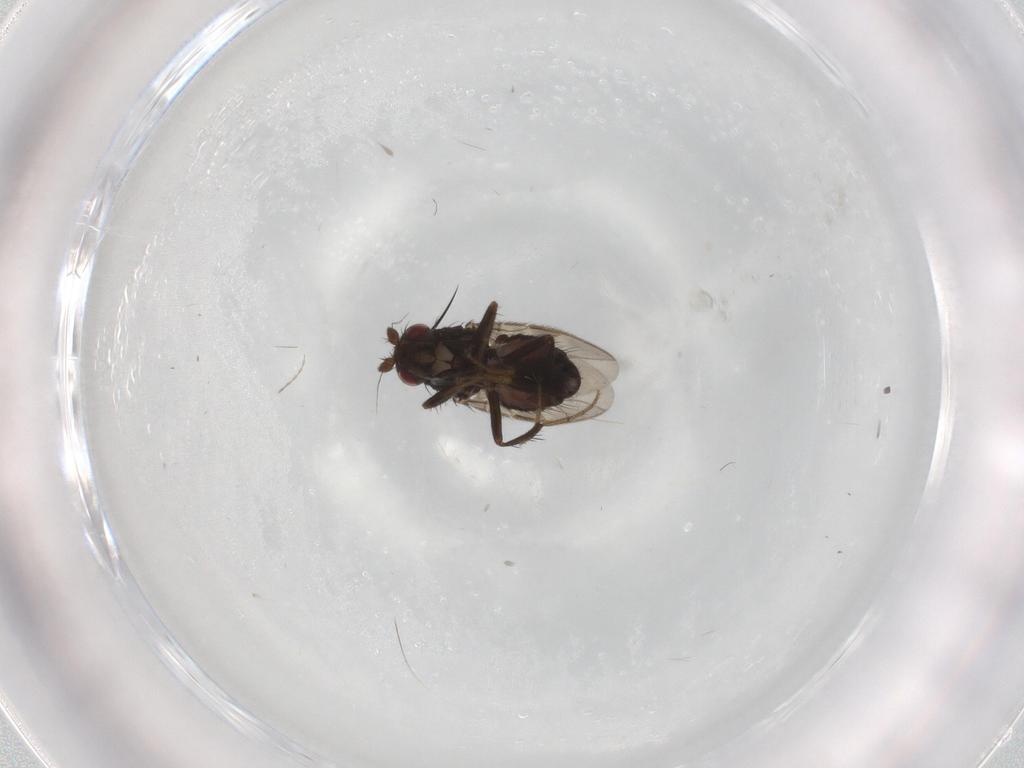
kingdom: Animalia
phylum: Arthropoda
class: Insecta
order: Diptera
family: Sphaeroceridae
